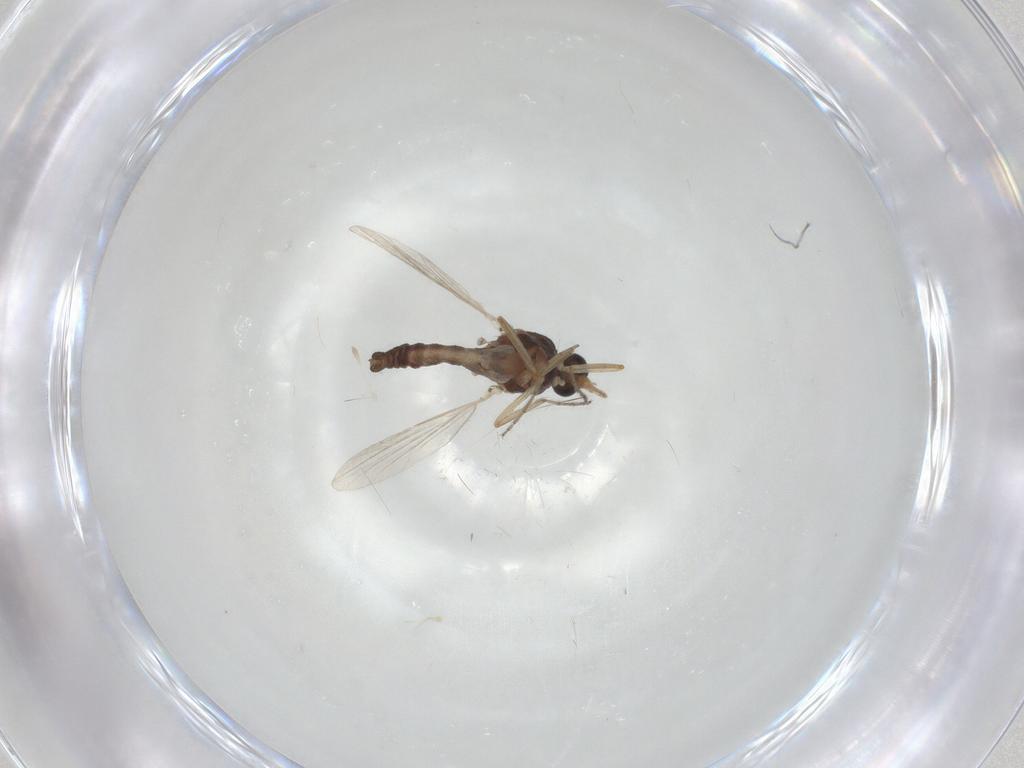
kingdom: Animalia
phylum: Arthropoda
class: Insecta
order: Diptera
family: Ceratopogonidae
